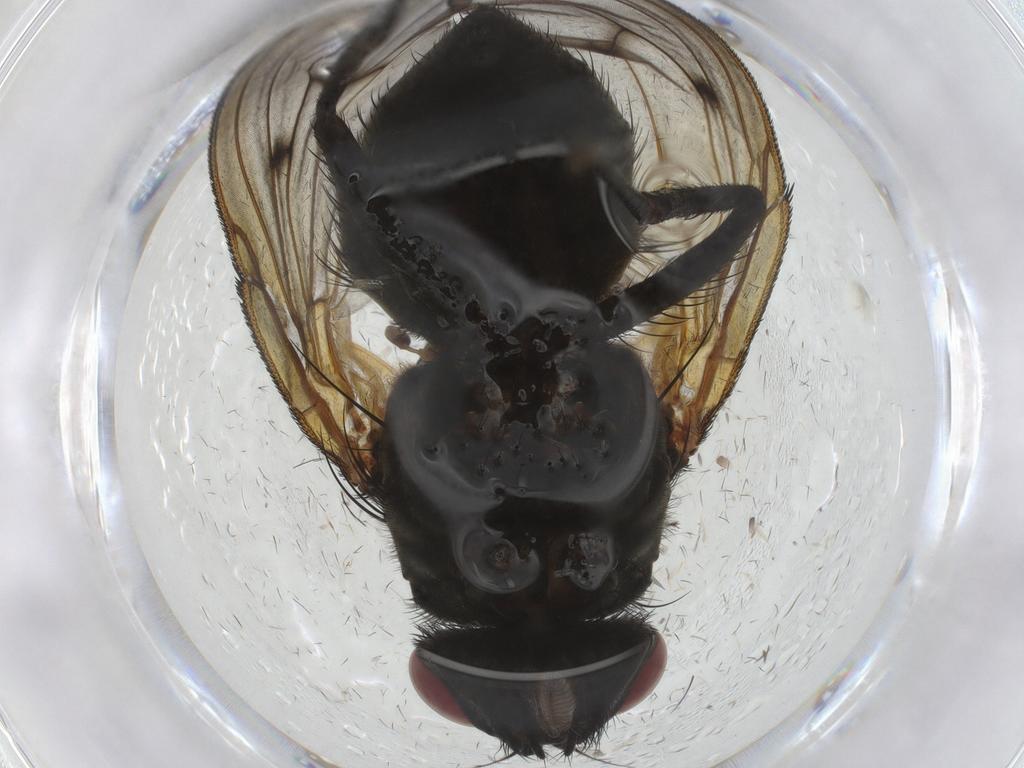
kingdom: Animalia
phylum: Arthropoda
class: Insecta
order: Diptera
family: Muscidae
